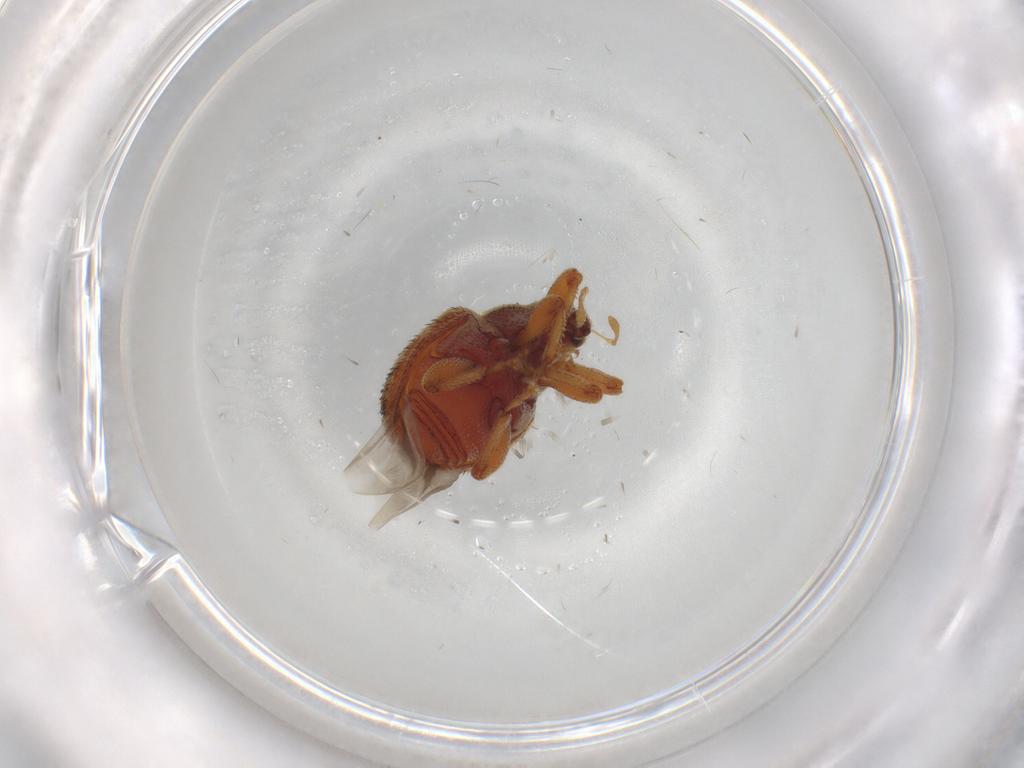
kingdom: Animalia
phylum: Arthropoda
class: Insecta
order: Coleoptera
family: Curculionidae
